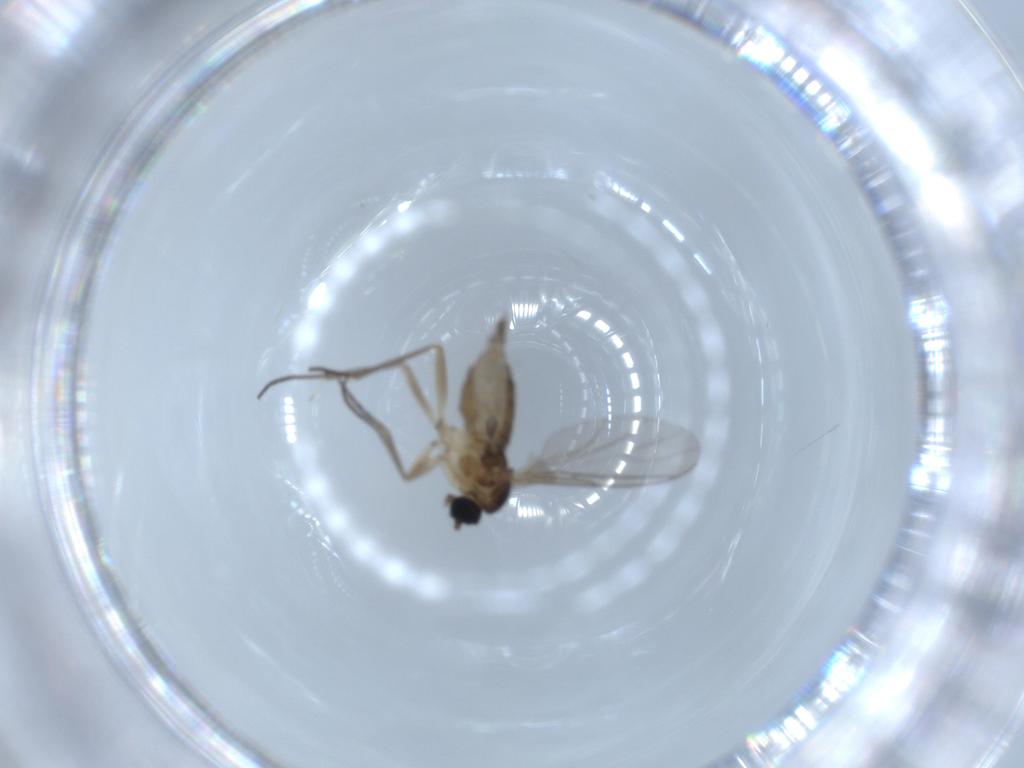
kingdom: Animalia
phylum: Arthropoda
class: Insecta
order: Diptera
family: Sciaridae
